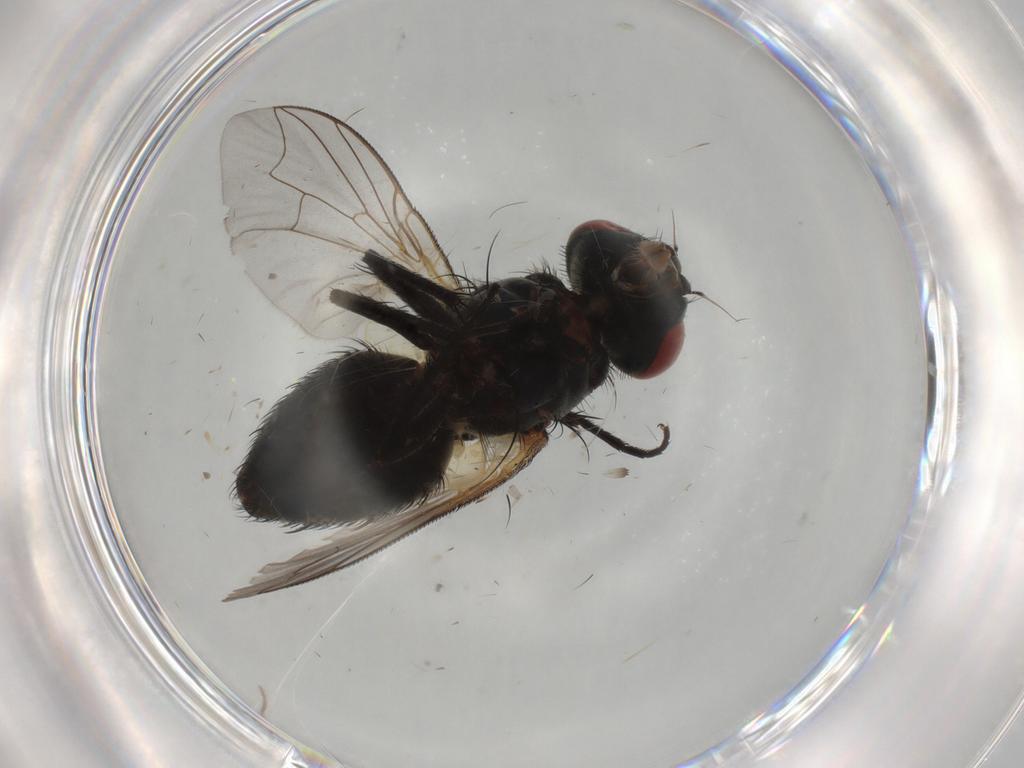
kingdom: Animalia
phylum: Arthropoda
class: Insecta
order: Diptera
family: Sarcophagidae
